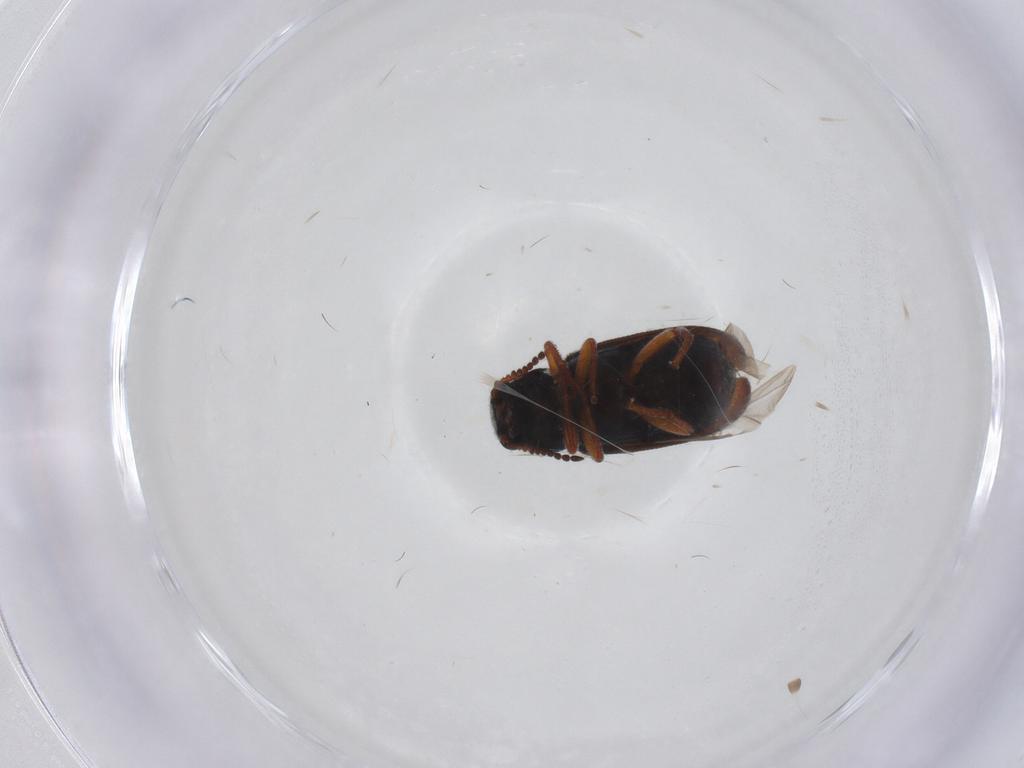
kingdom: Animalia
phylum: Arthropoda
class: Insecta
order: Coleoptera
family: Melyridae
